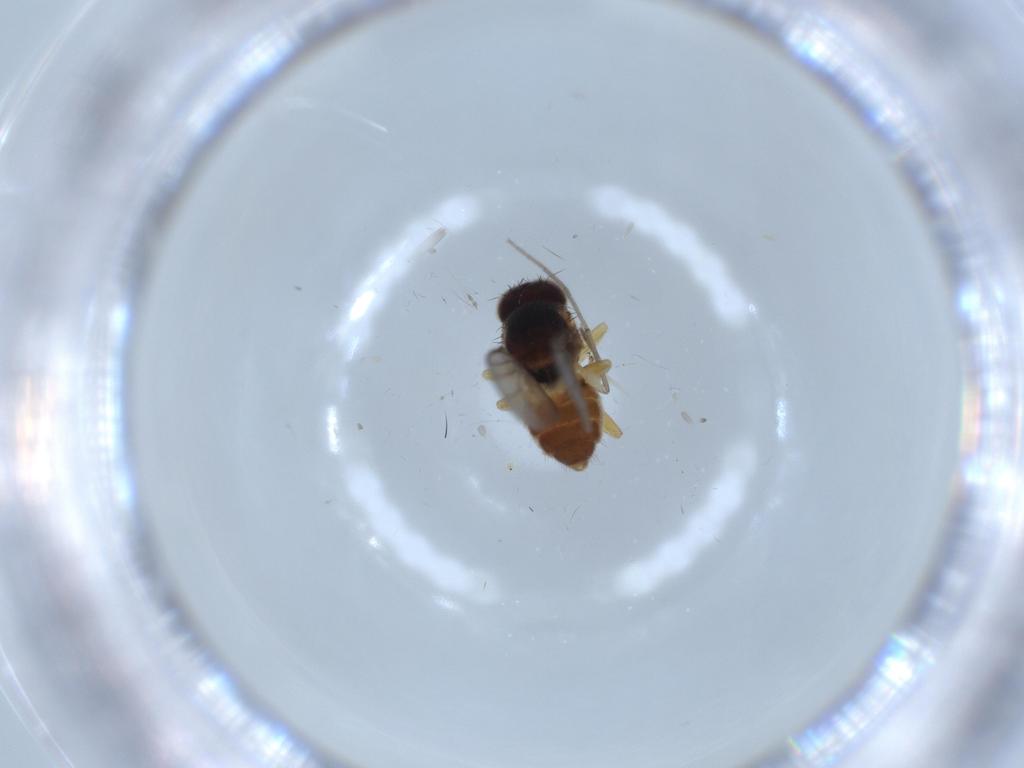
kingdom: Animalia
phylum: Arthropoda
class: Insecta
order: Diptera
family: Chloropidae
